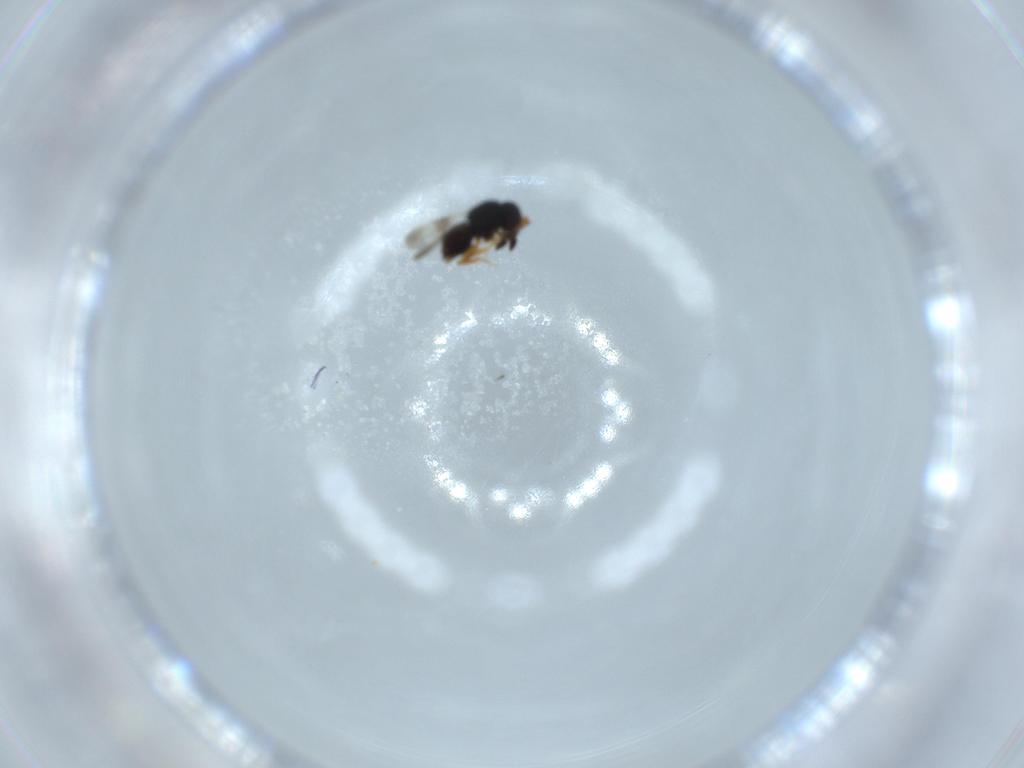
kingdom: Animalia
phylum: Arthropoda
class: Insecta
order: Hymenoptera
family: Ceraphronidae
